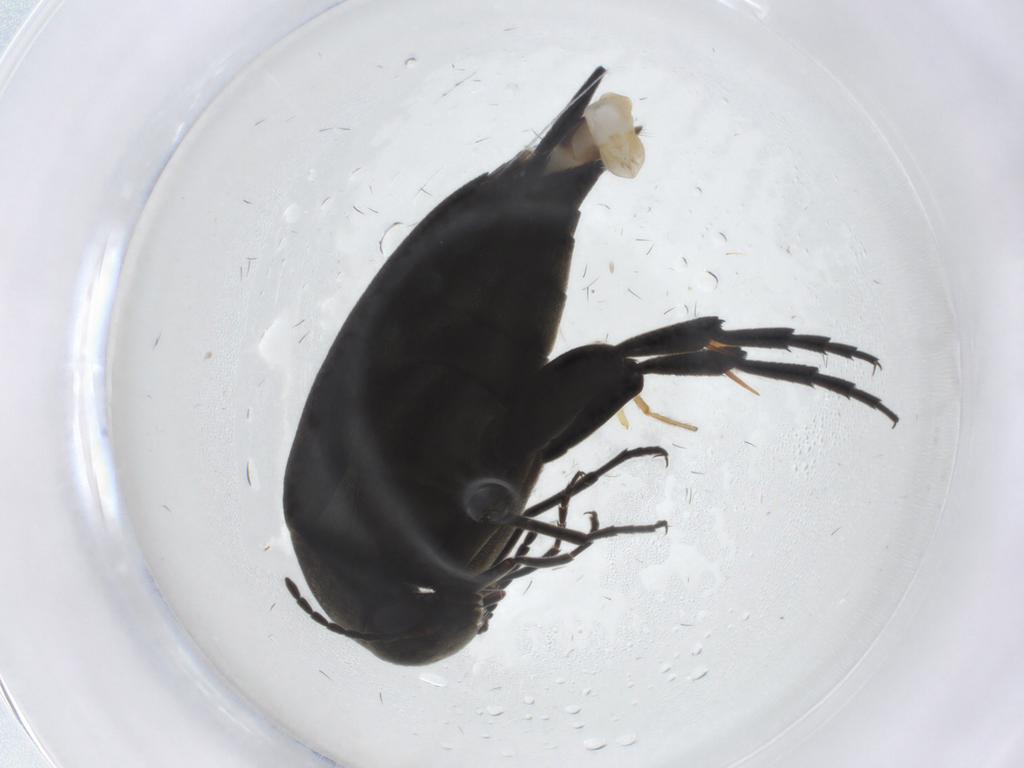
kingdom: Animalia
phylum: Arthropoda
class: Insecta
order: Coleoptera
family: Mordellidae
